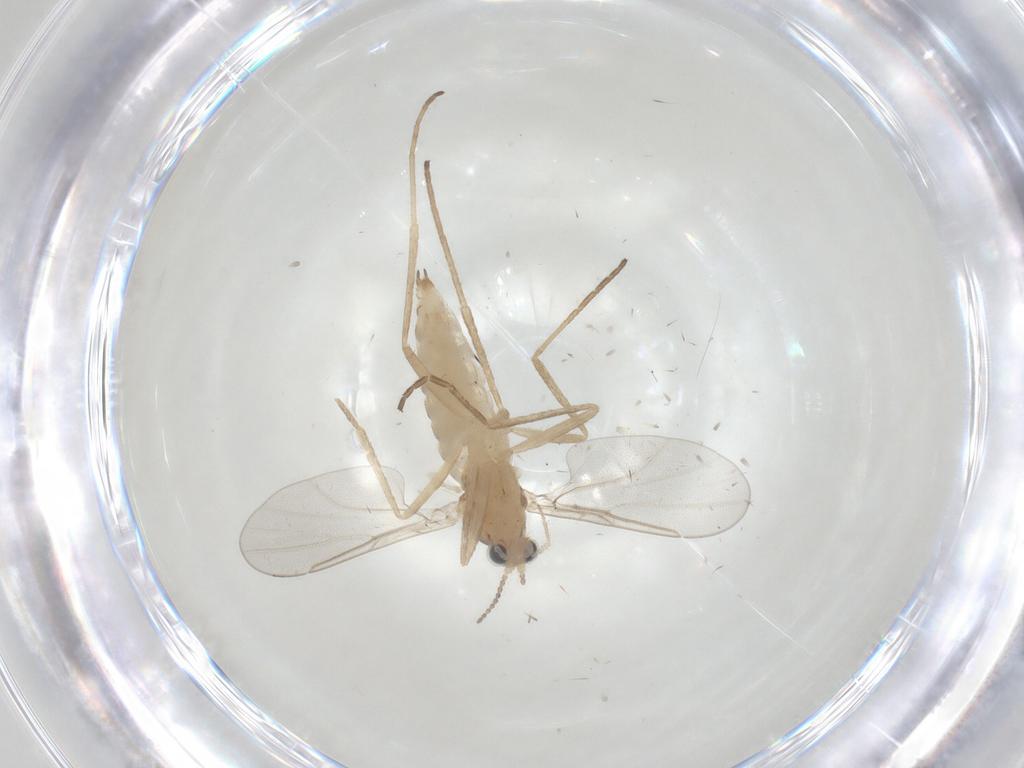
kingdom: Animalia
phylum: Arthropoda
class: Insecta
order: Diptera
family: Cecidomyiidae
